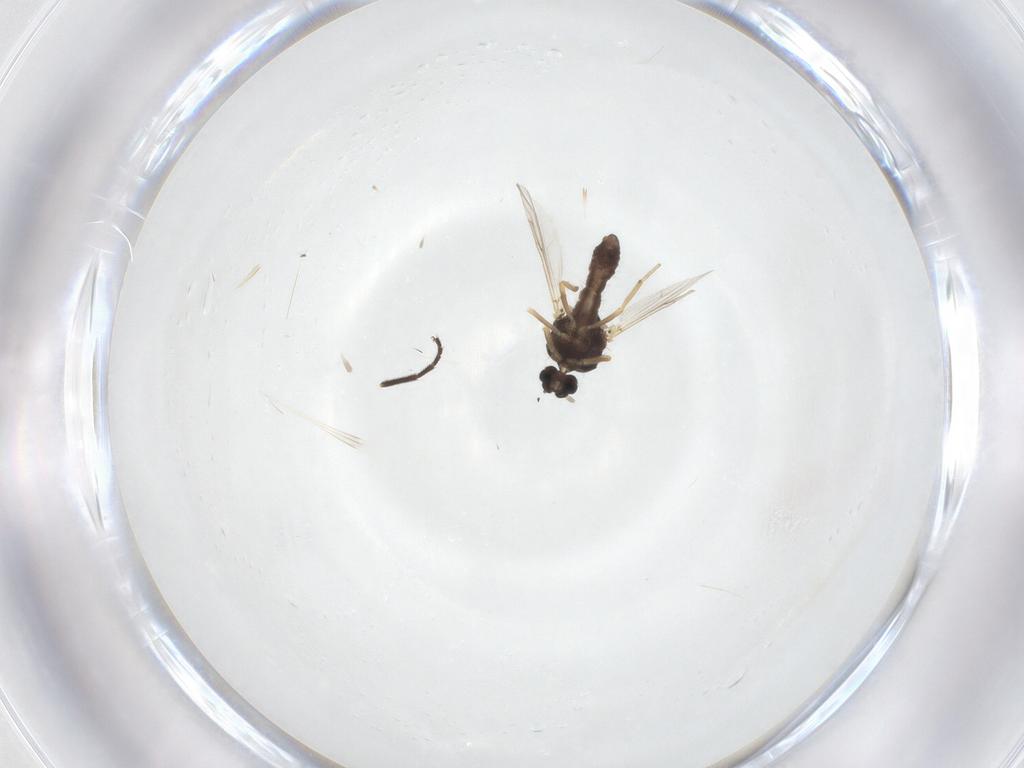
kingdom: Animalia
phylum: Arthropoda
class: Insecta
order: Diptera
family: Ceratopogonidae
